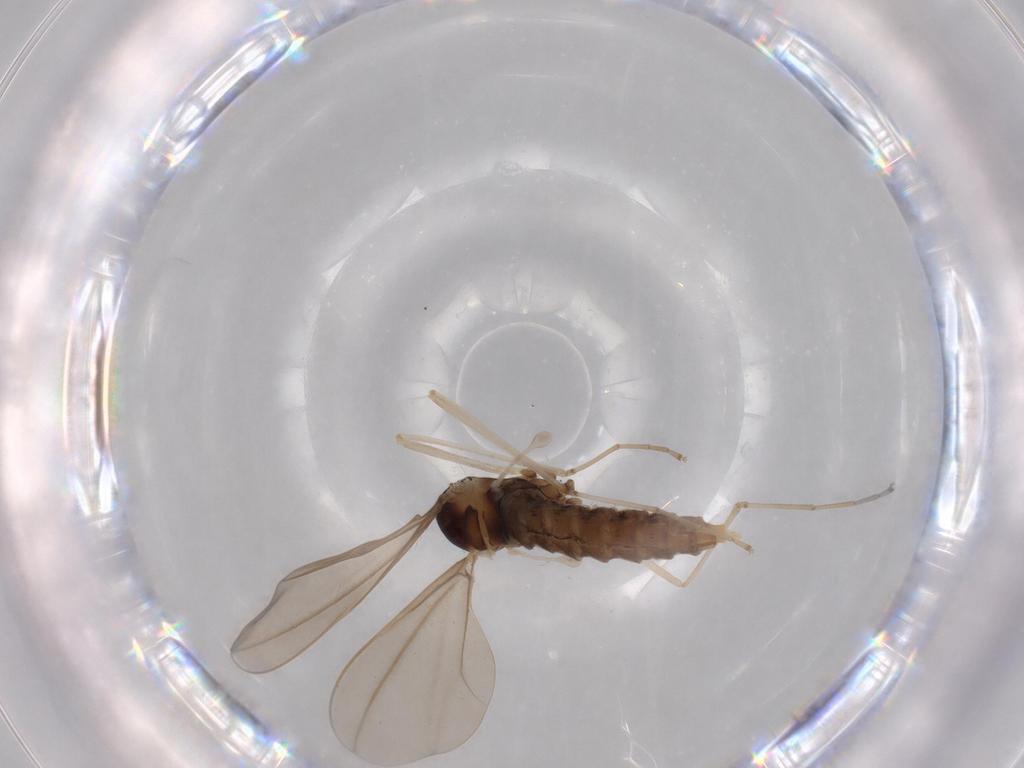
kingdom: Animalia
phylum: Arthropoda
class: Insecta
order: Diptera
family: Cecidomyiidae
